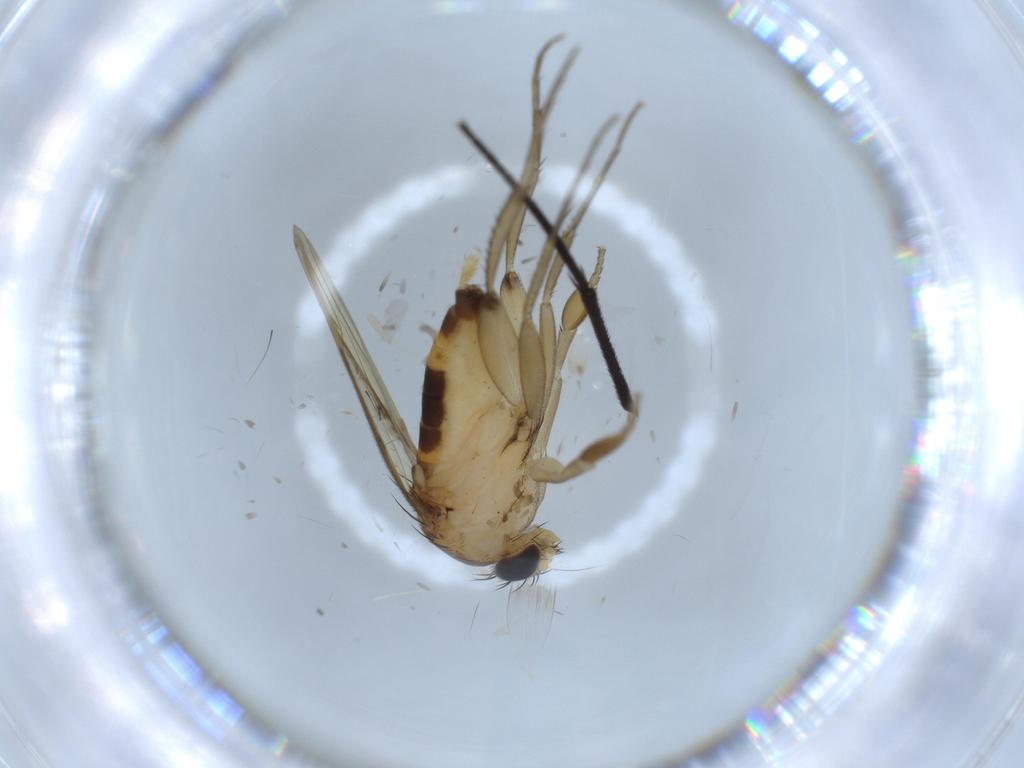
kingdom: Animalia
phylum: Arthropoda
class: Insecta
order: Diptera
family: Phoridae
